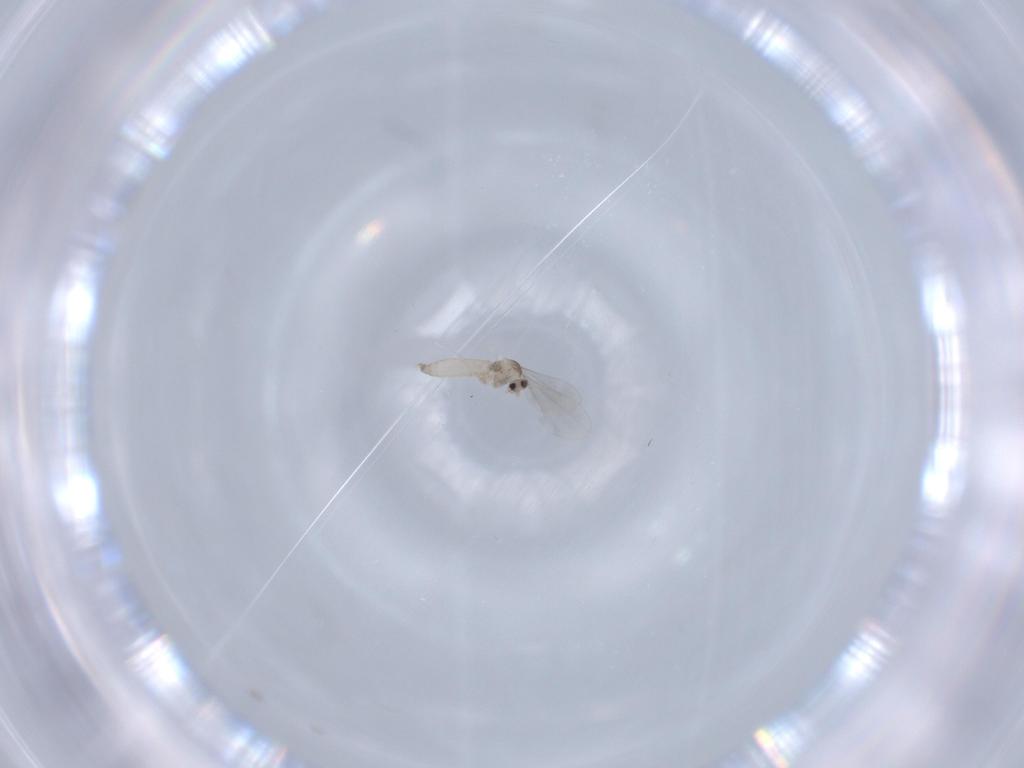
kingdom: Animalia
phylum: Arthropoda
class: Insecta
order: Diptera
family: Cecidomyiidae
